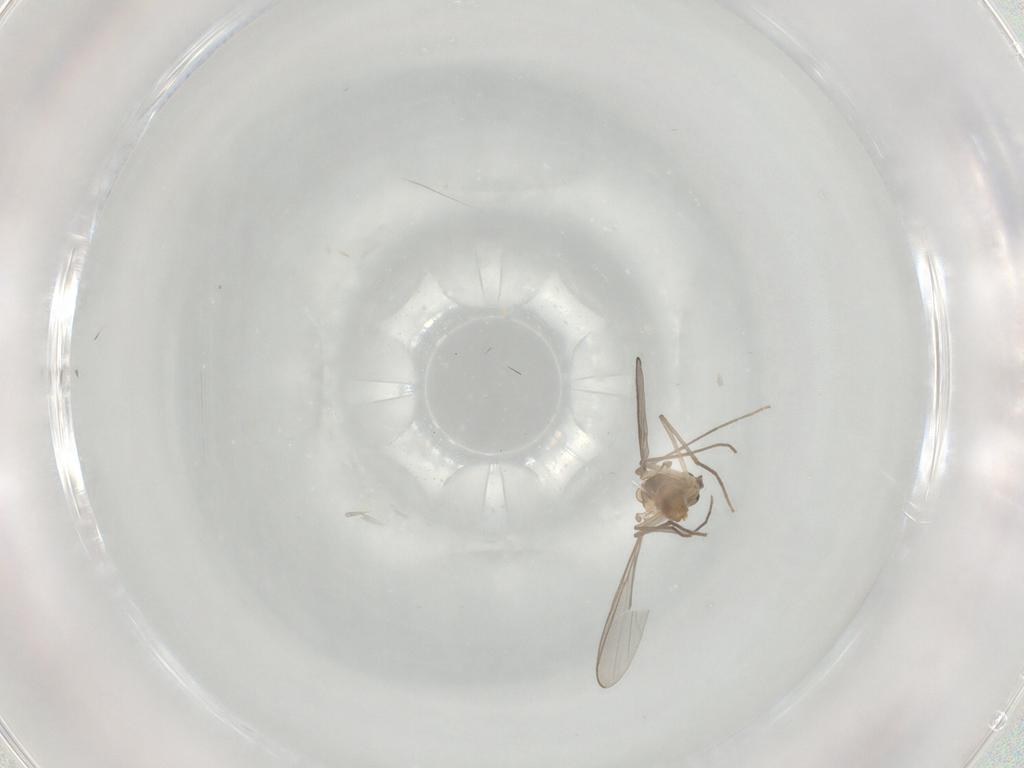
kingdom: Animalia
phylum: Arthropoda
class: Insecta
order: Diptera
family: Chironomidae
